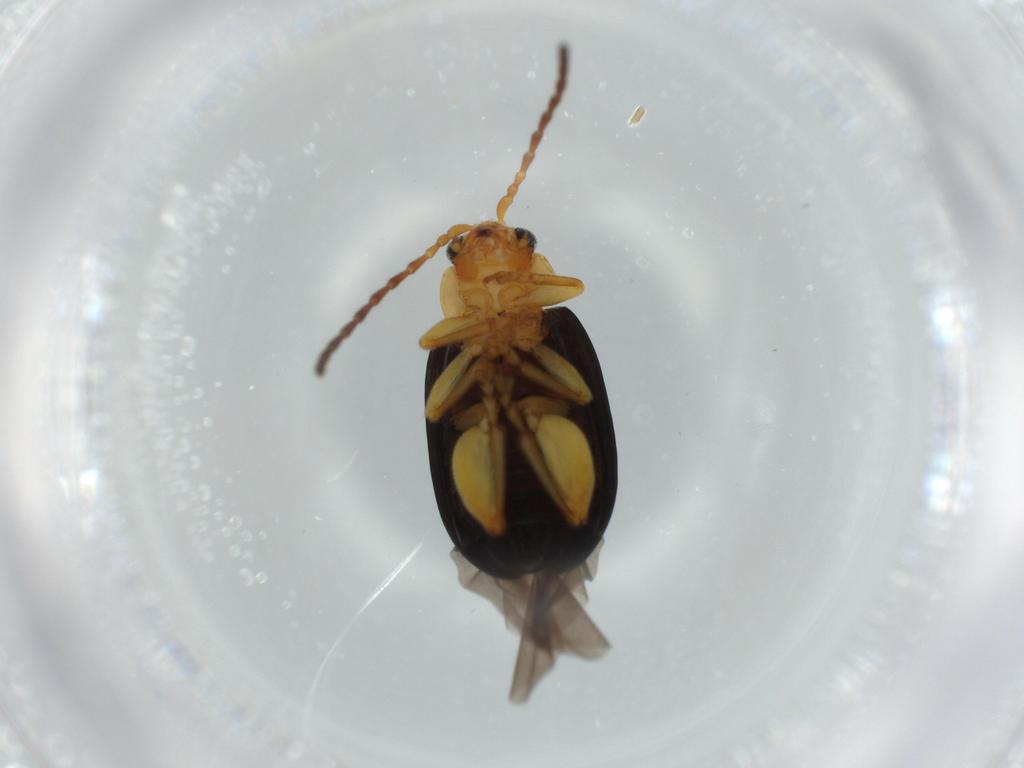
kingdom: Animalia
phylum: Arthropoda
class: Insecta
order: Coleoptera
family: Chrysomelidae
